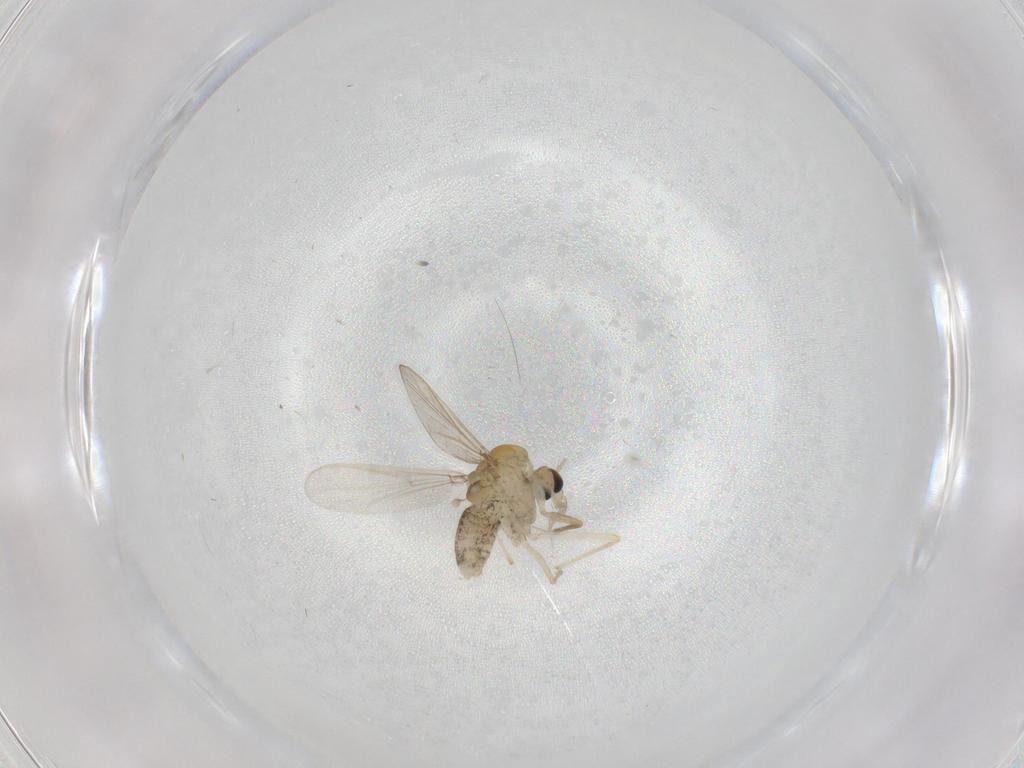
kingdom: Animalia
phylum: Arthropoda
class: Insecta
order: Diptera
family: Chironomidae
